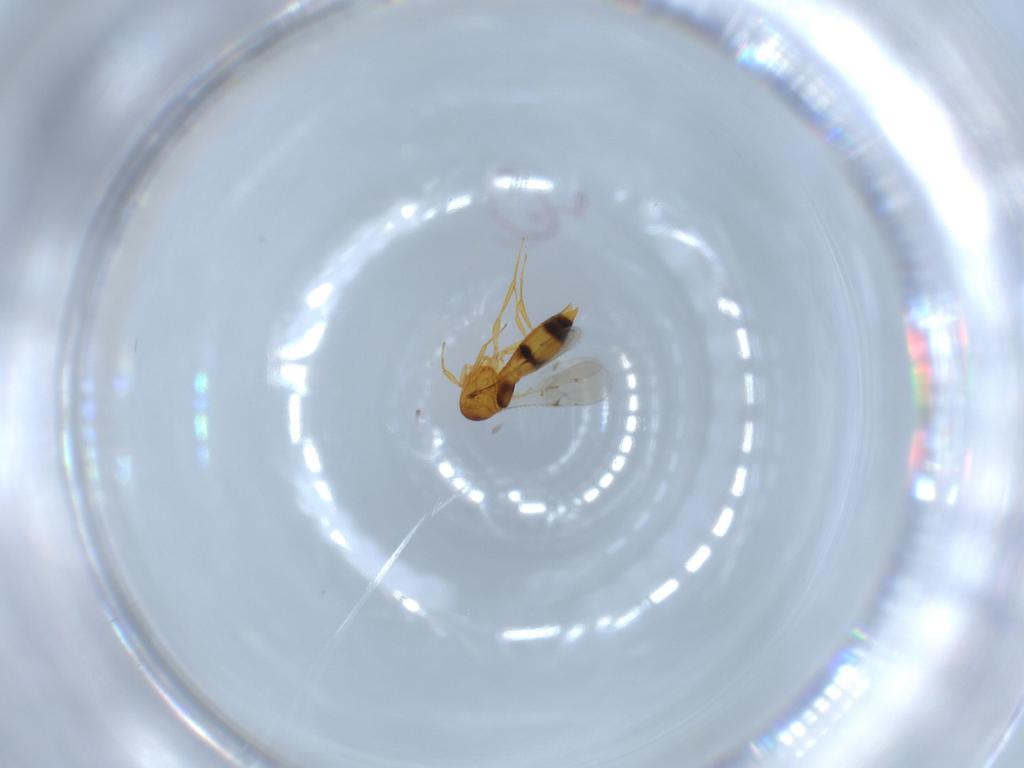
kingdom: Animalia
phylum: Arthropoda
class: Insecta
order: Hymenoptera
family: Scelionidae
